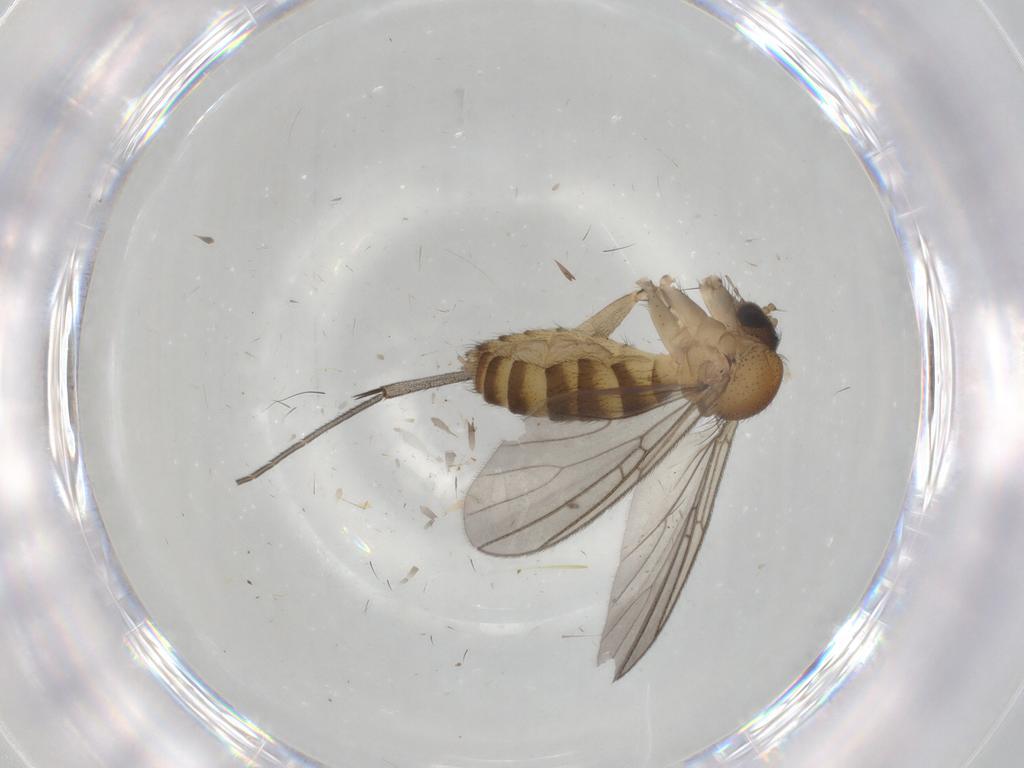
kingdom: Animalia
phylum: Arthropoda
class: Insecta
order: Diptera
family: Mycetophilidae
